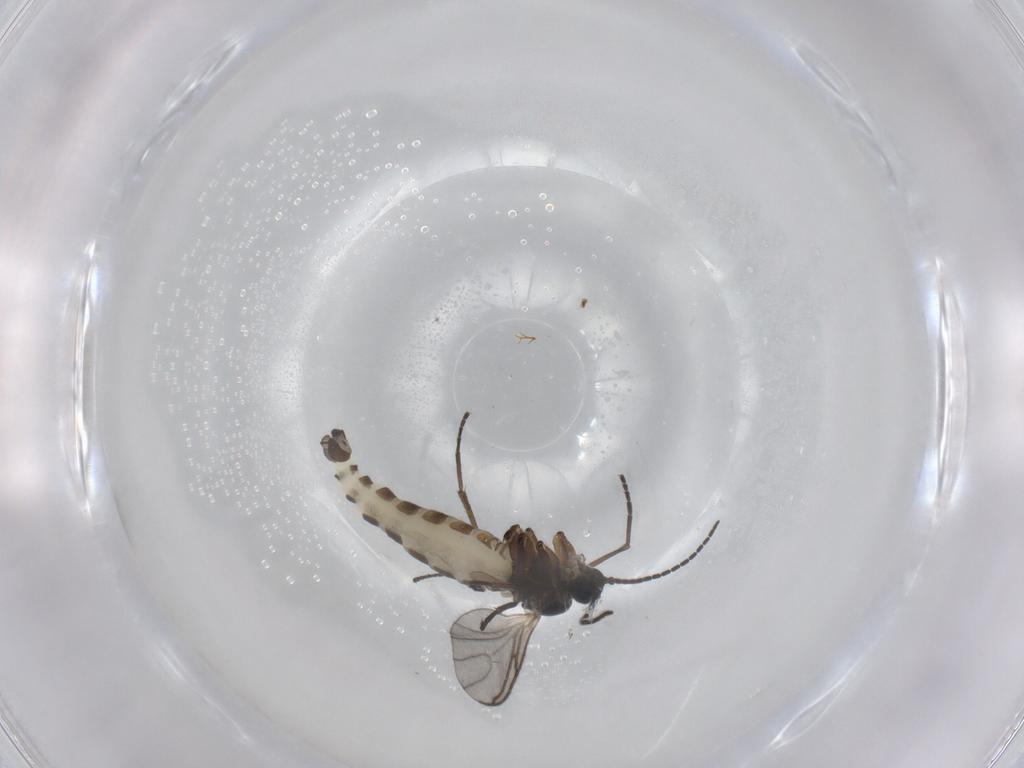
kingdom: Animalia
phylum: Arthropoda
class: Insecta
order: Diptera
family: Sciaridae
